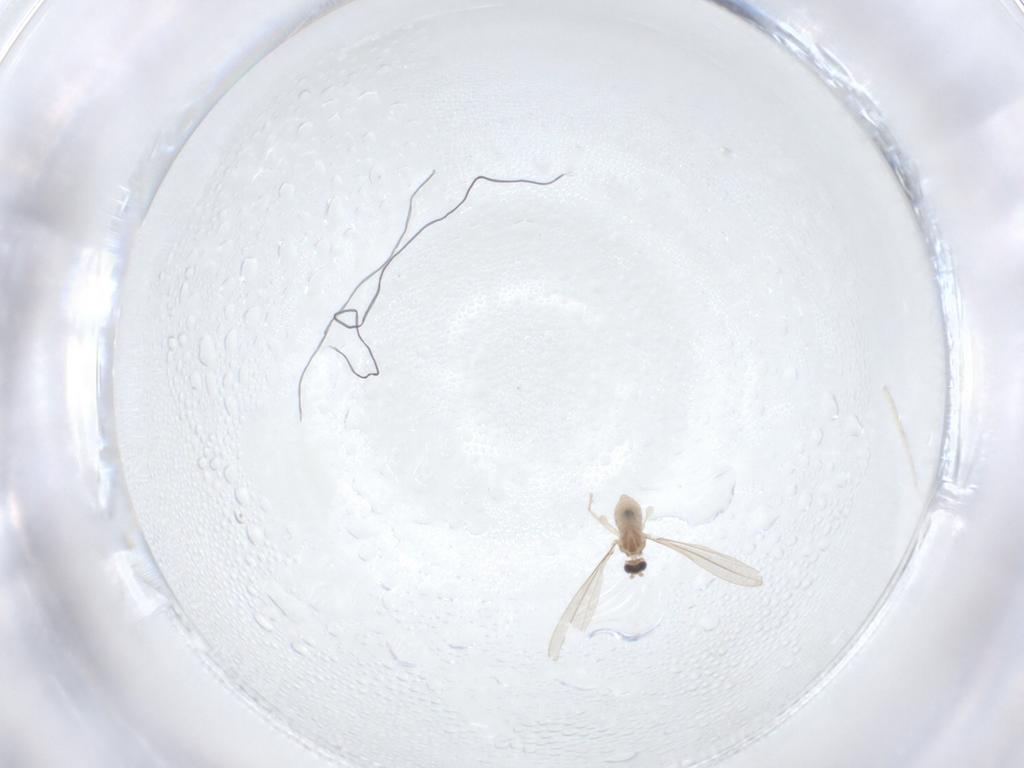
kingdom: Animalia
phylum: Arthropoda
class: Insecta
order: Diptera
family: Cecidomyiidae
